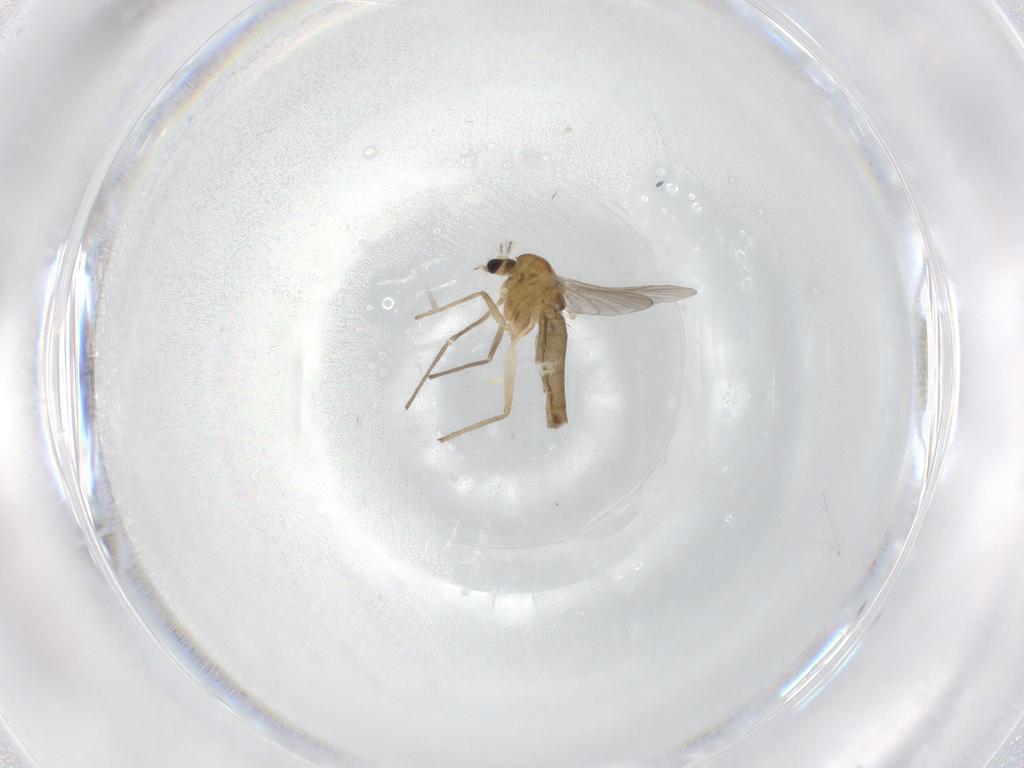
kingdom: Animalia
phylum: Arthropoda
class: Insecta
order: Diptera
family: Chironomidae
